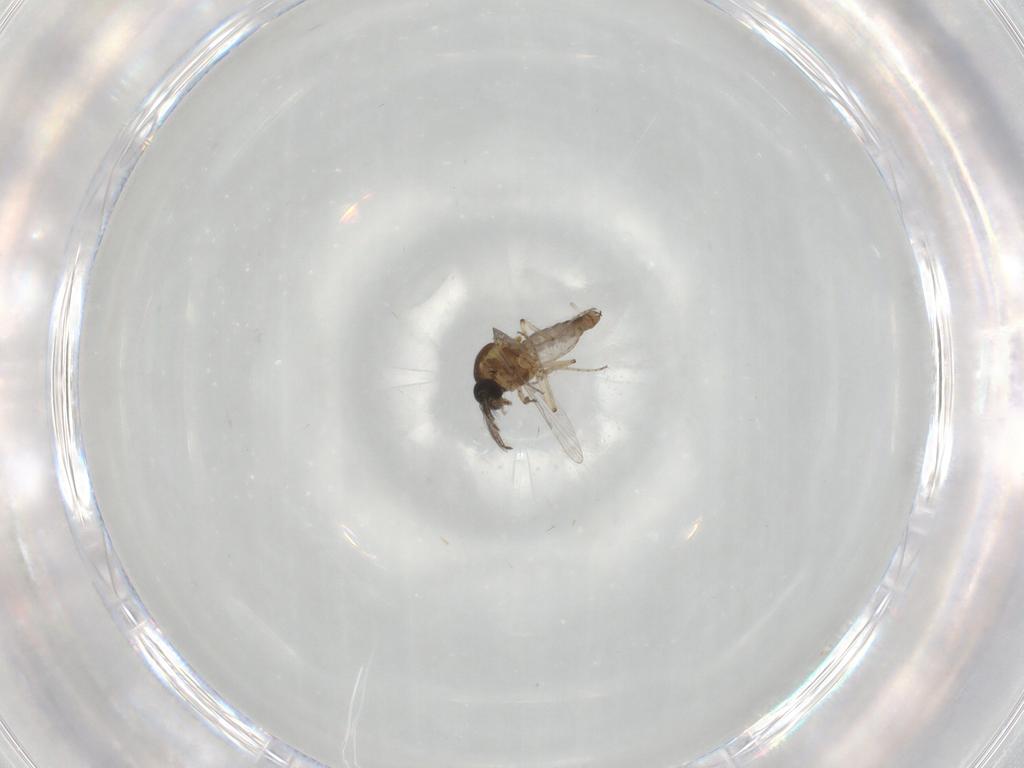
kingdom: Animalia
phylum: Arthropoda
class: Insecta
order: Diptera
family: Ceratopogonidae
